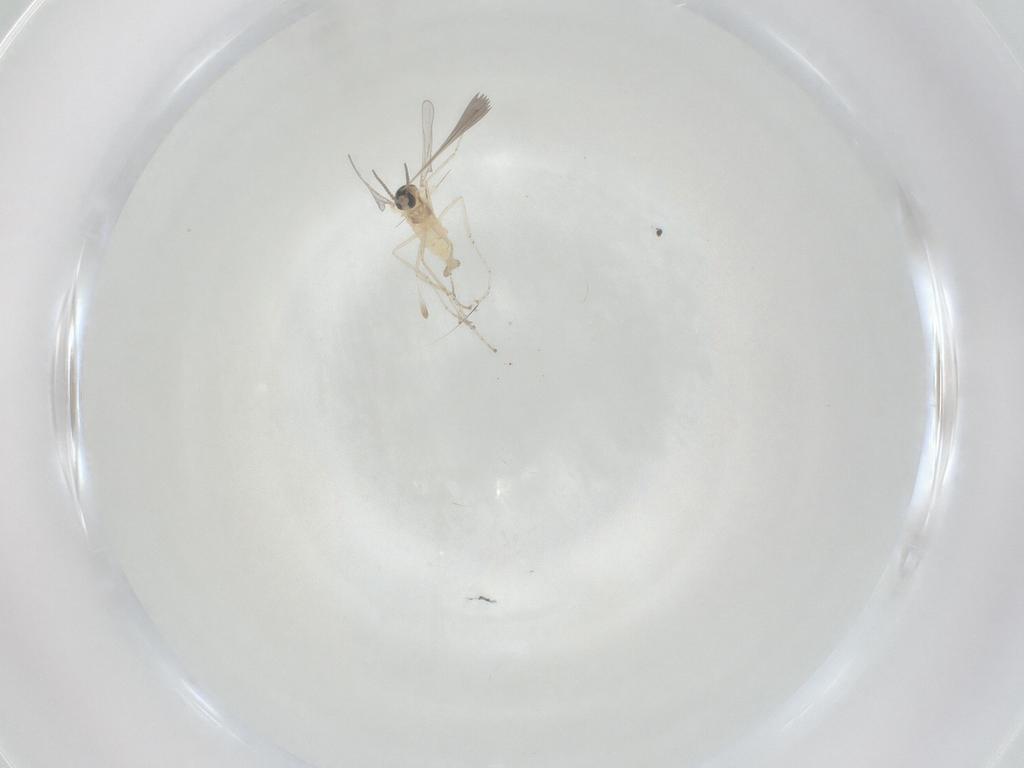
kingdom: Animalia
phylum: Arthropoda
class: Insecta
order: Diptera
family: Cecidomyiidae
